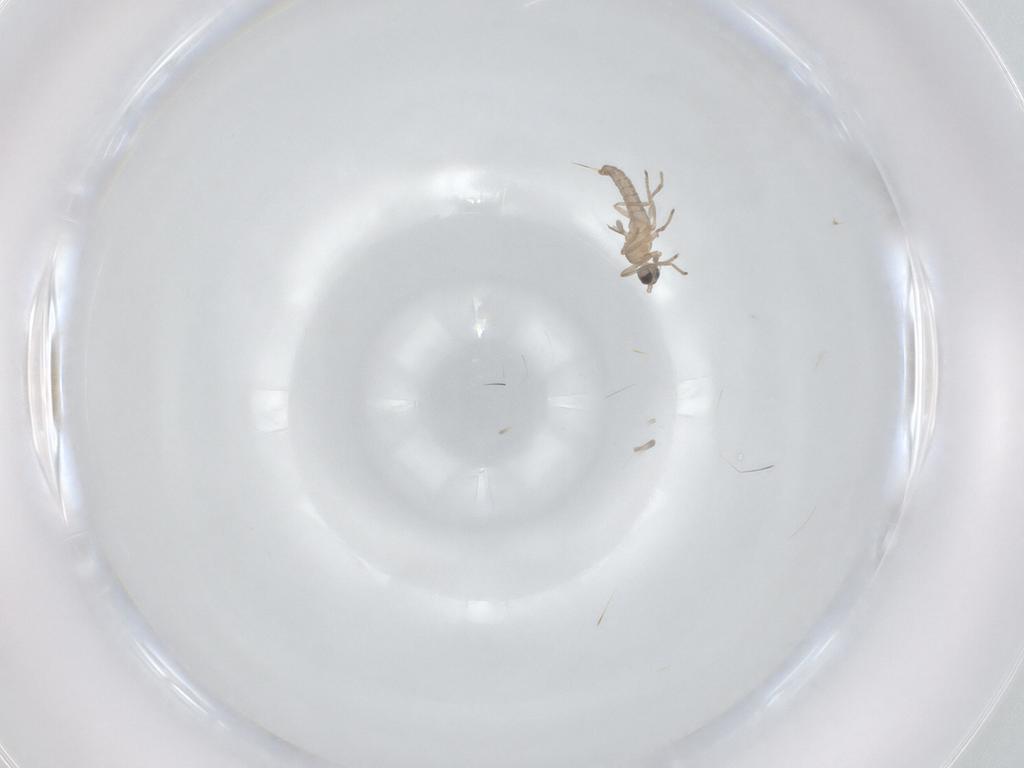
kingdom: Animalia
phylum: Arthropoda
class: Insecta
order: Diptera
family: Cecidomyiidae
